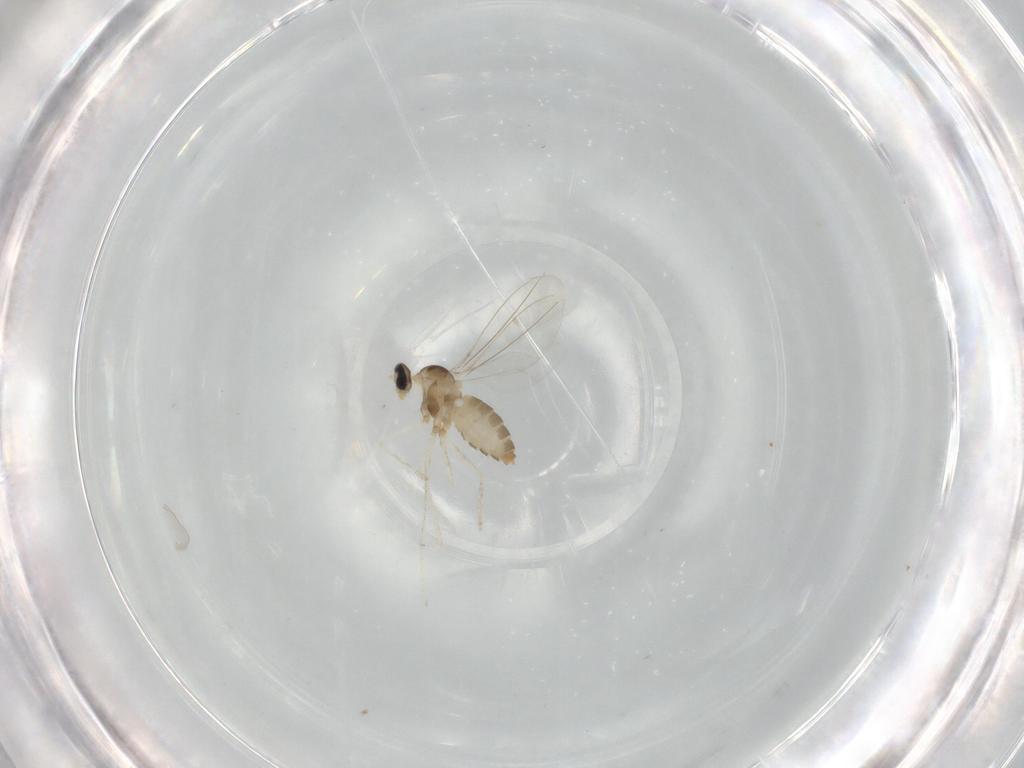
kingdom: Animalia
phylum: Arthropoda
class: Insecta
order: Diptera
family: Cecidomyiidae
